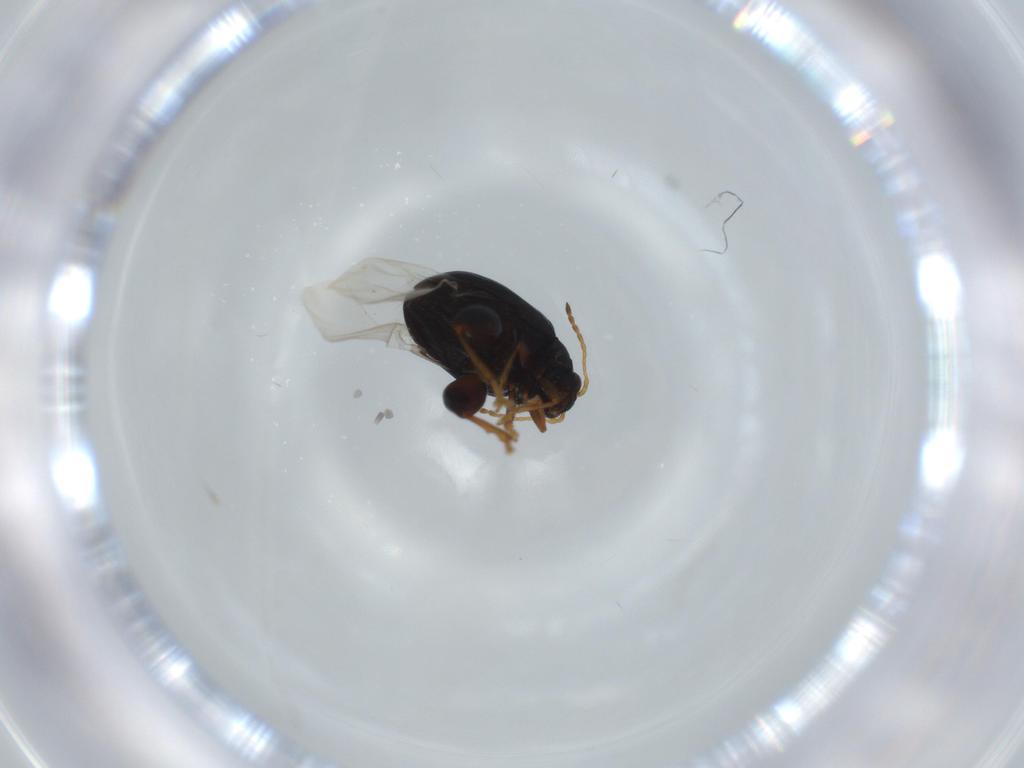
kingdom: Animalia
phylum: Arthropoda
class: Insecta
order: Coleoptera
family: Chrysomelidae
